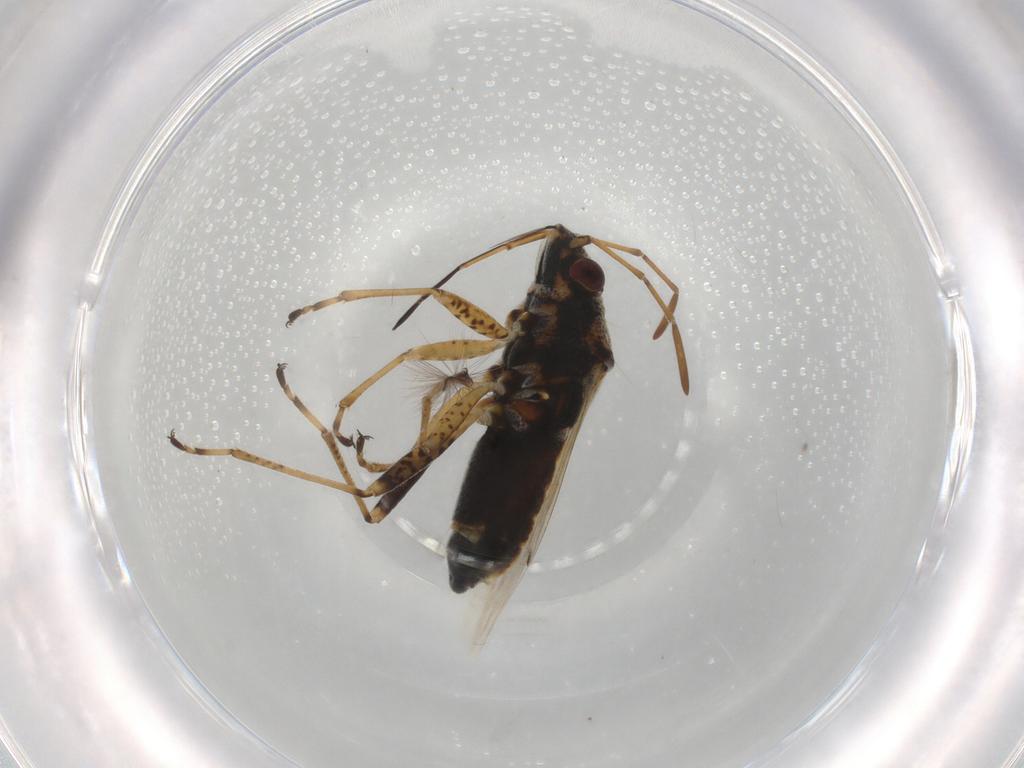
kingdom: Animalia
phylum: Arthropoda
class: Insecta
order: Hemiptera
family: Lygaeidae
